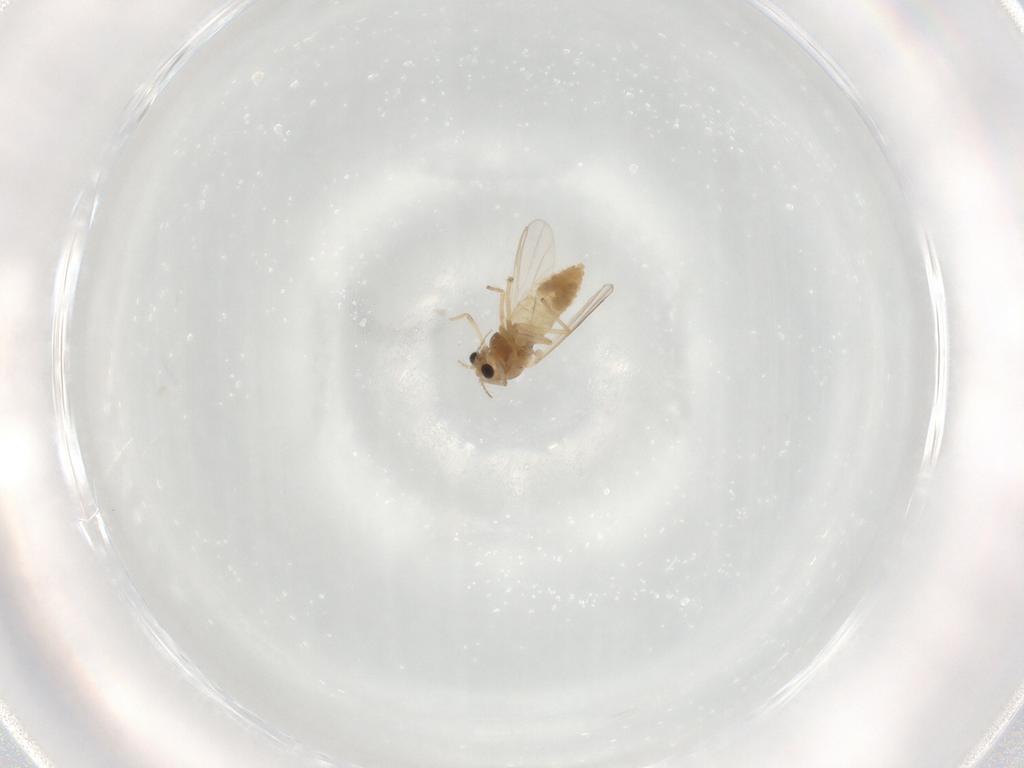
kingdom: Animalia
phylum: Arthropoda
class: Insecta
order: Diptera
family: Chironomidae
